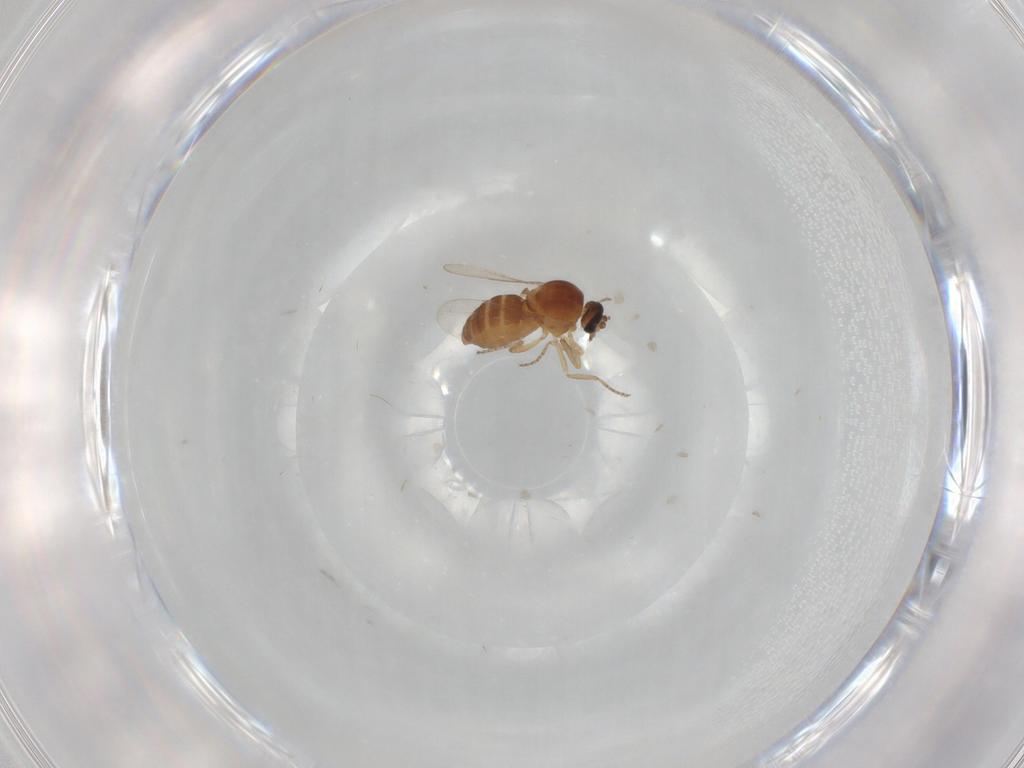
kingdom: Animalia
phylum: Arthropoda
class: Insecta
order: Diptera
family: Ceratopogonidae
